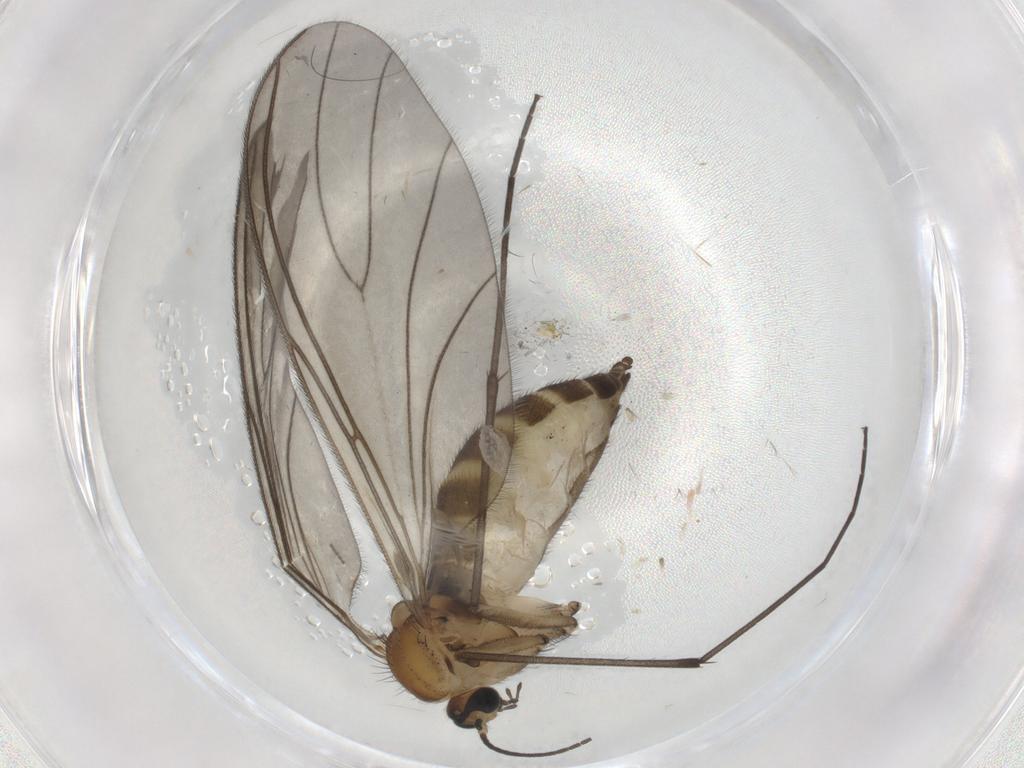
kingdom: Animalia
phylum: Arthropoda
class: Insecta
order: Diptera
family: Sciaridae
